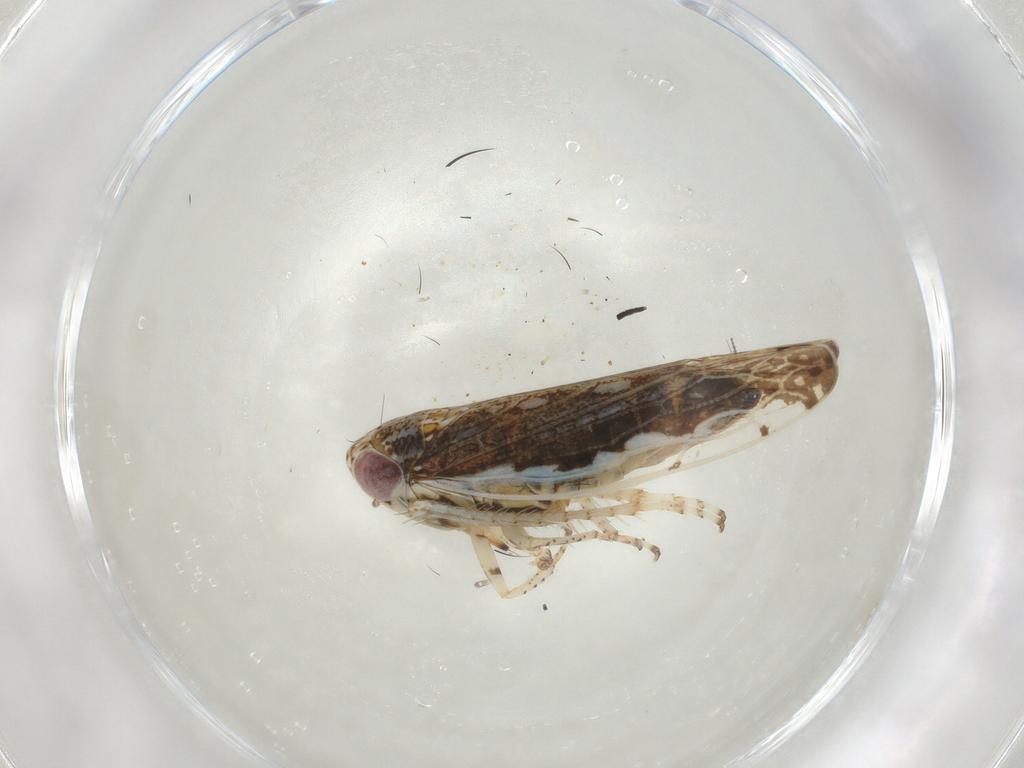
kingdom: Animalia
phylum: Arthropoda
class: Insecta
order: Hemiptera
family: Cicadellidae
